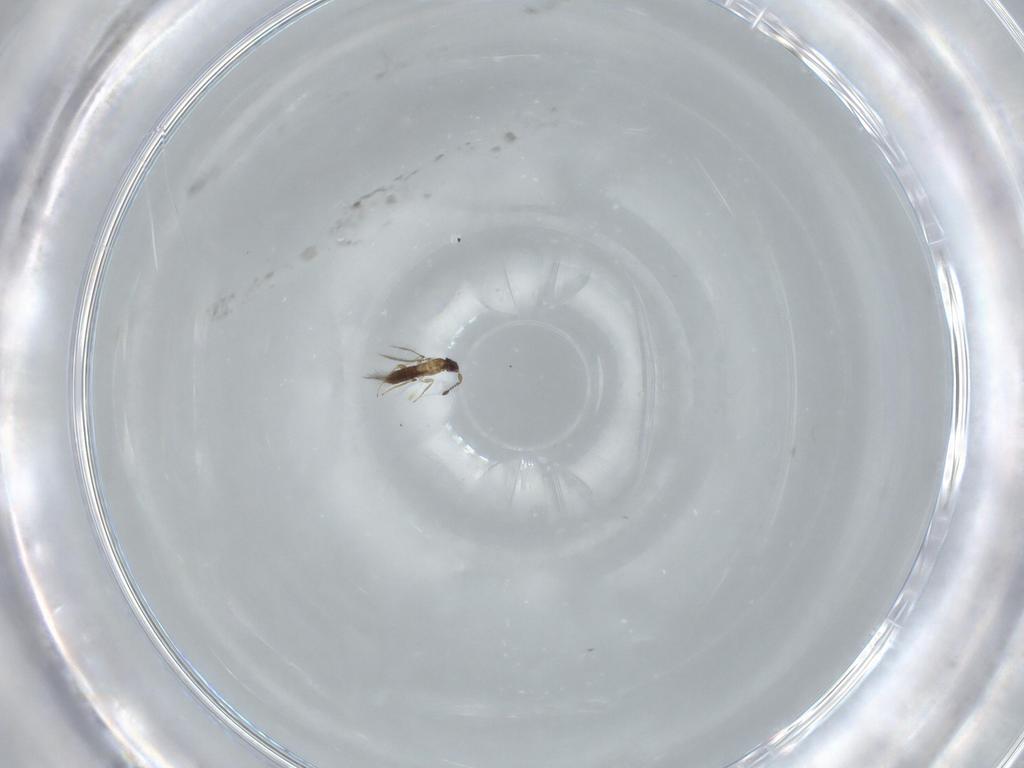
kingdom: Animalia
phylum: Arthropoda
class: Insecta
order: Hymenoptera
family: Mymaridae
